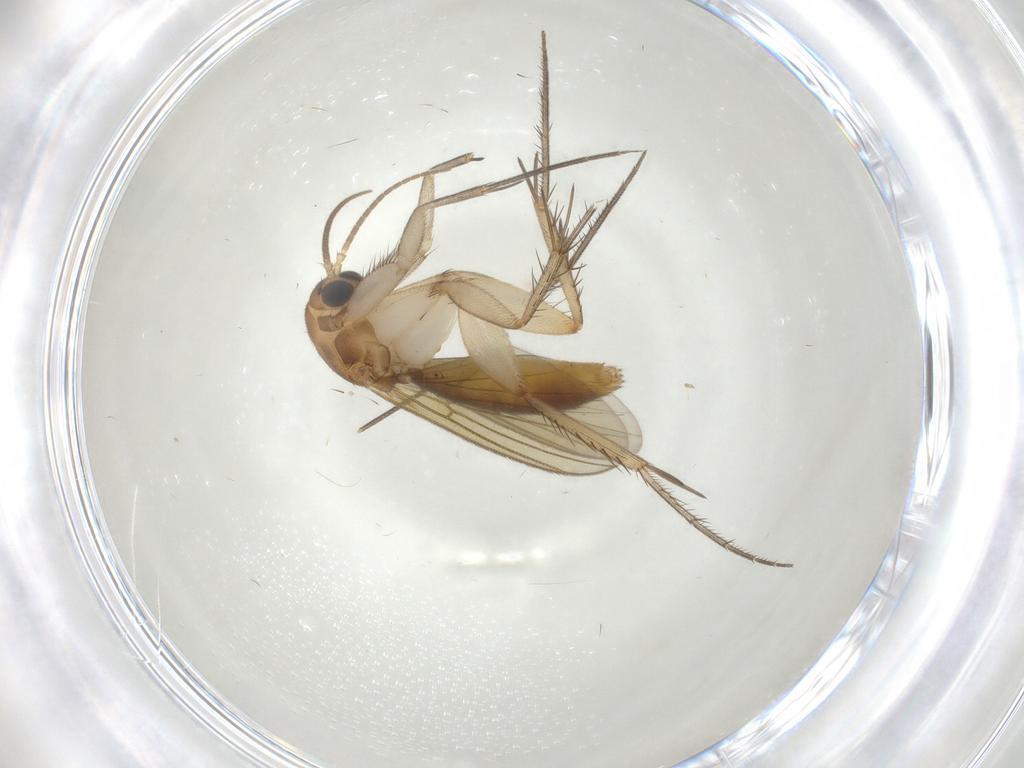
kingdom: Animalia
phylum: Arthropoda
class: Insecta
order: Diptera
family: Mycetophilidae
